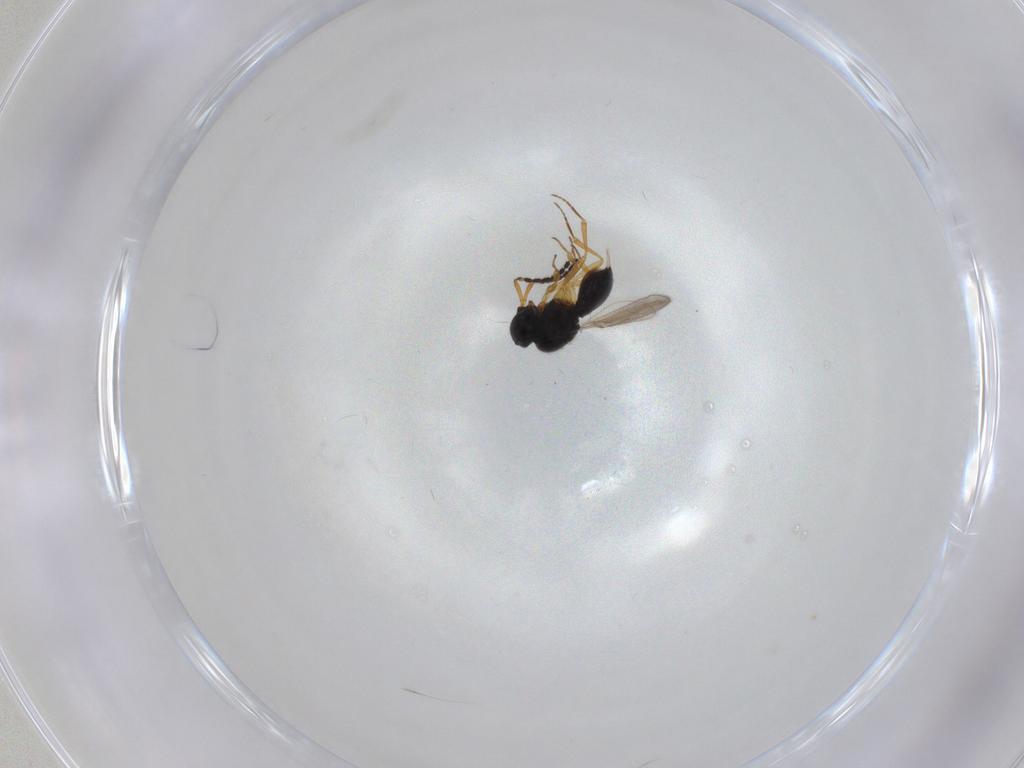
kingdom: Animalia
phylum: Arthropoda
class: Insecta
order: Hymenoptera
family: Scelionidae
